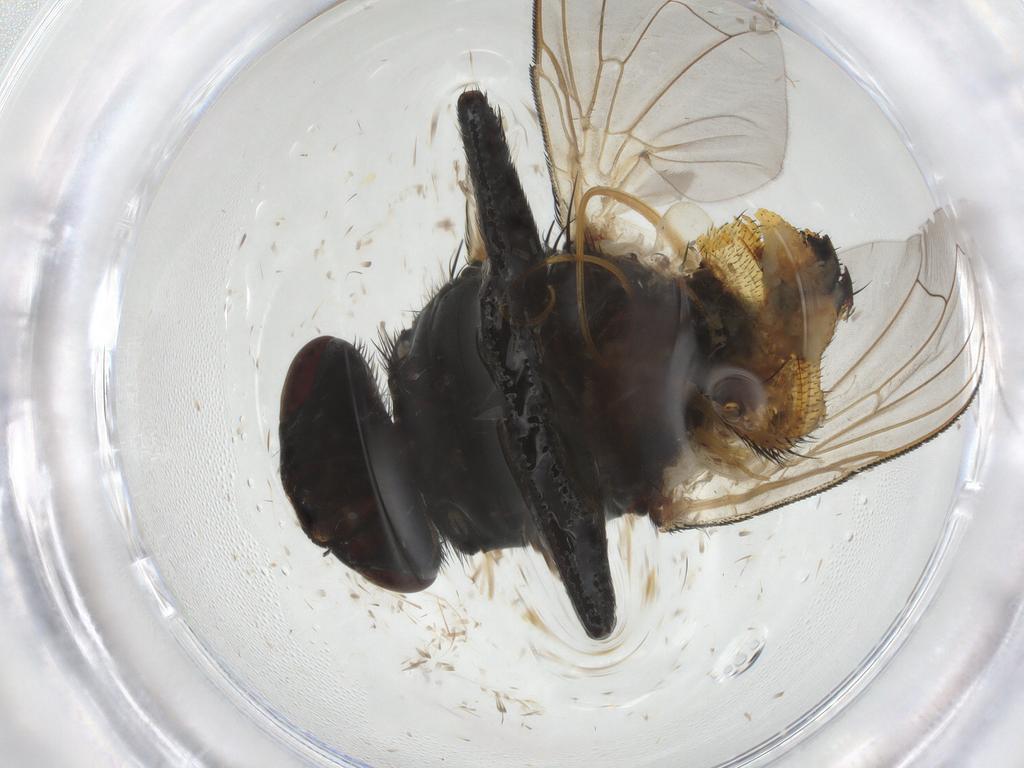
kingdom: Animalia
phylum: Arthropoda
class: Insecta
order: Diptera
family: Muscidae
